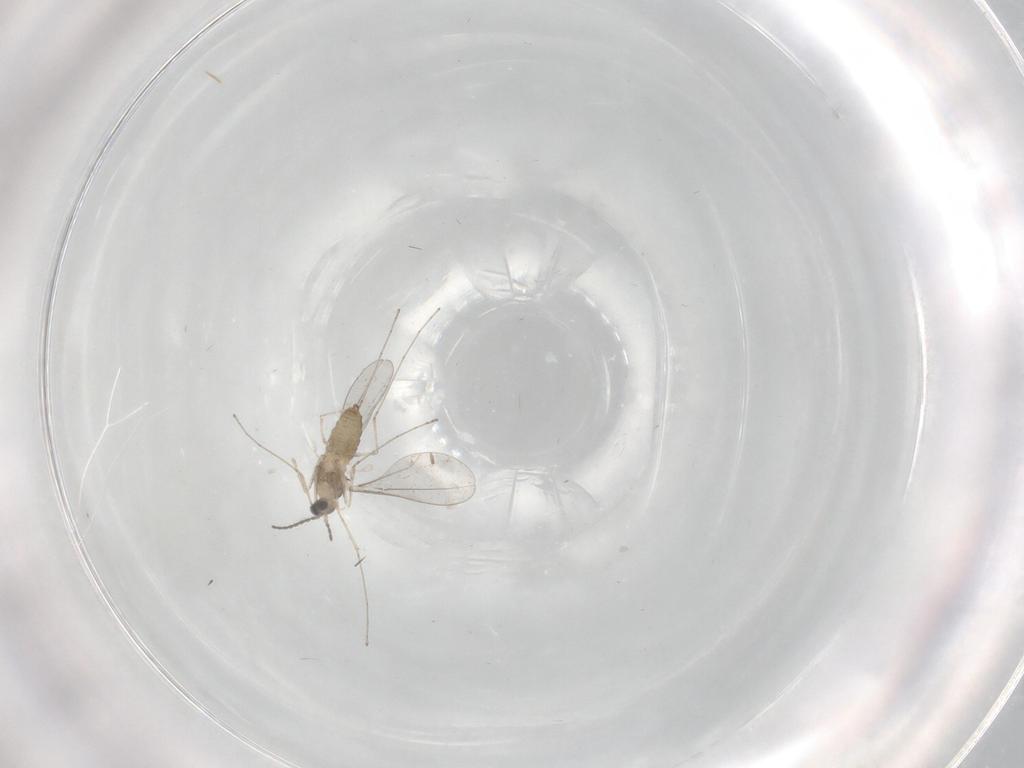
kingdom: Animalia
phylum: Arthropoda
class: Insecta
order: Diptera
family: Cecidomyiidae
